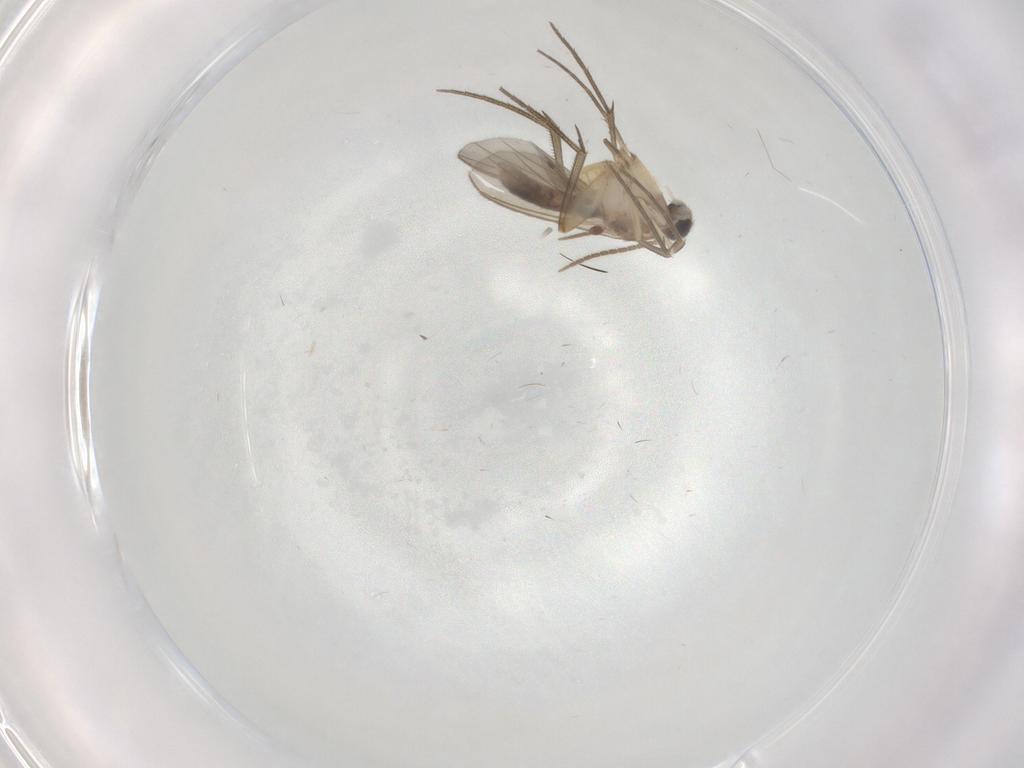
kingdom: Animalia
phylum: Arthropoda
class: Insecta
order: Diptera
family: Mycetophilidae
